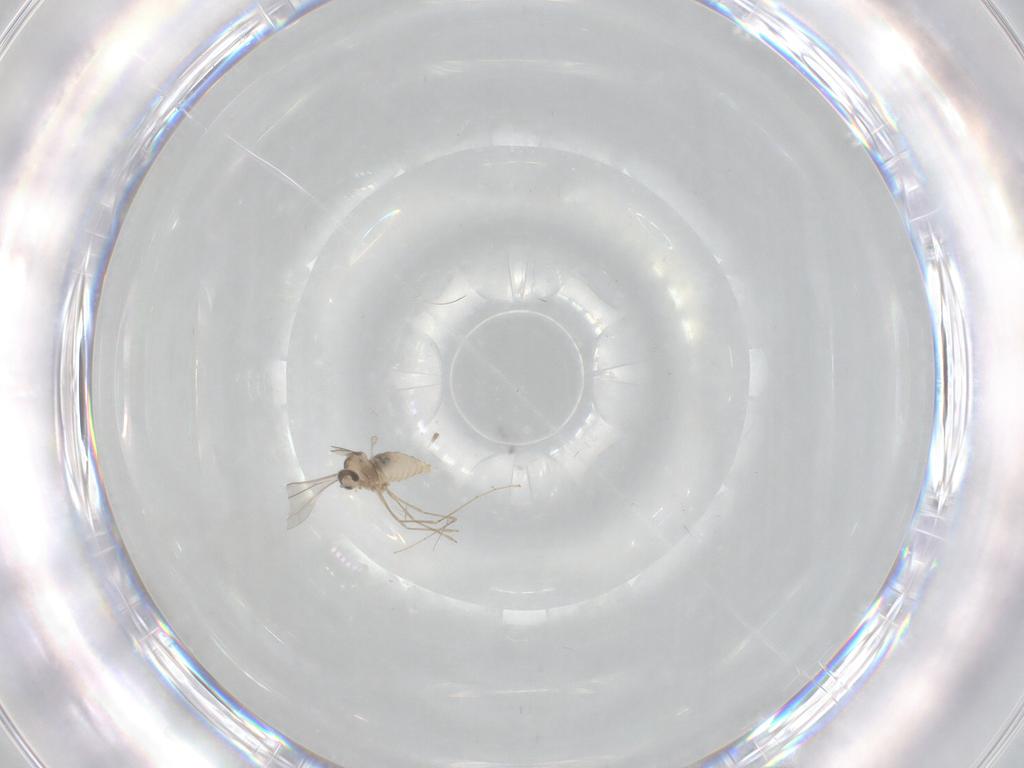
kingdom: Animalia
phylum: Arthropoda
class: Insecta
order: Diptera
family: Cecidomyiidae
